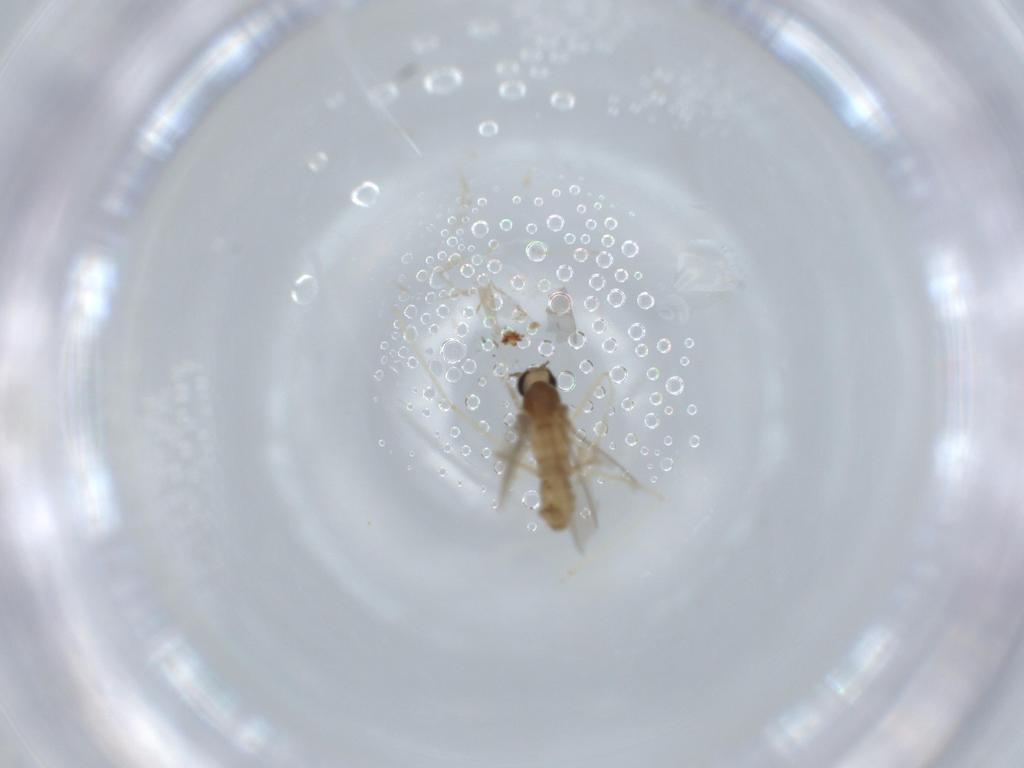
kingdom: Animalia
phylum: Arthropoda
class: Insecta
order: Diptera
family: Cecidomyiidae
